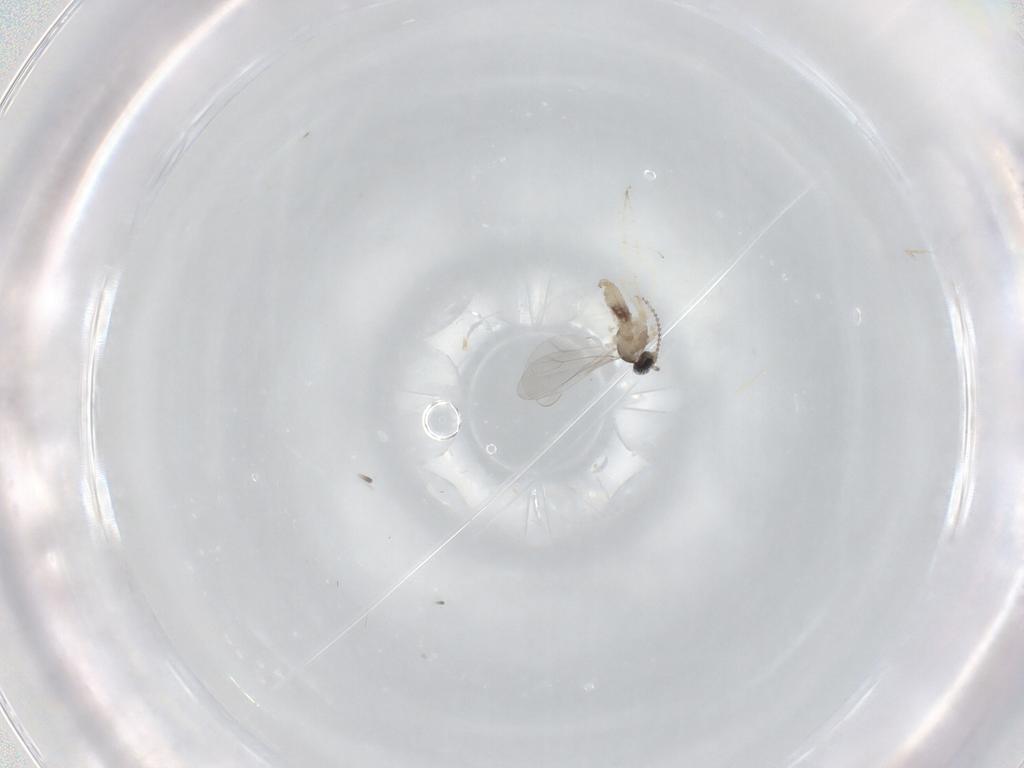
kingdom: Animalia
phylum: Arthropoda
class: Insecta
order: Diptera
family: Cecidomyiidae
